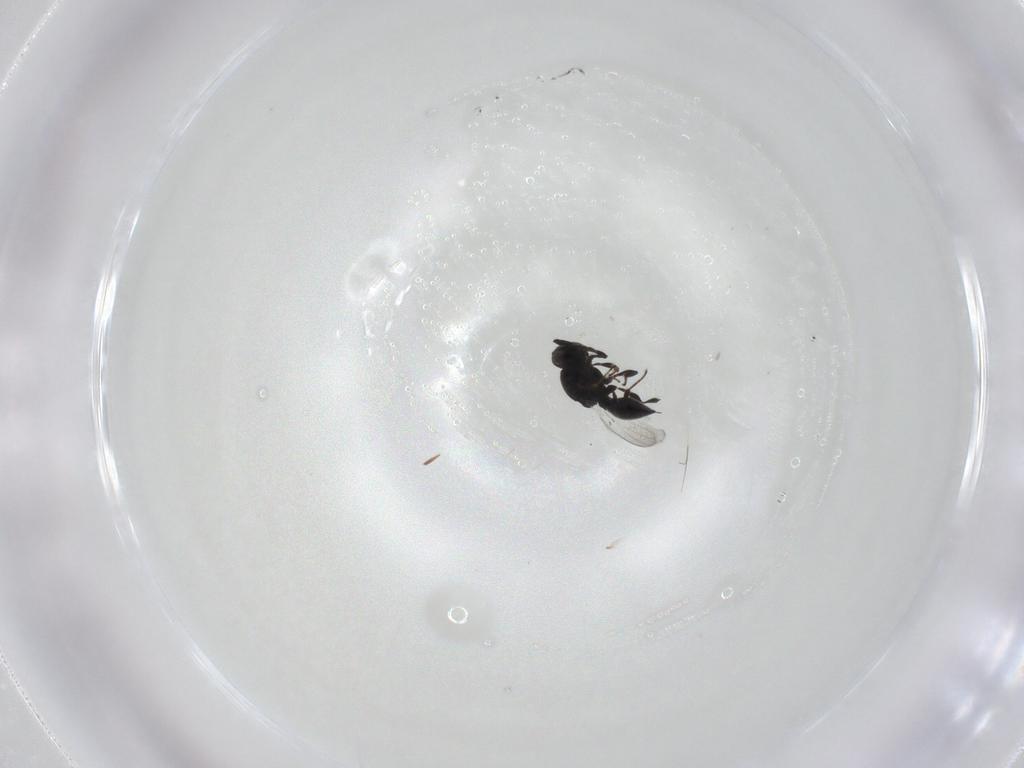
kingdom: Animalia
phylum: Arthropoda
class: Insecta
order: Hymenoptera
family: Platygastridae
